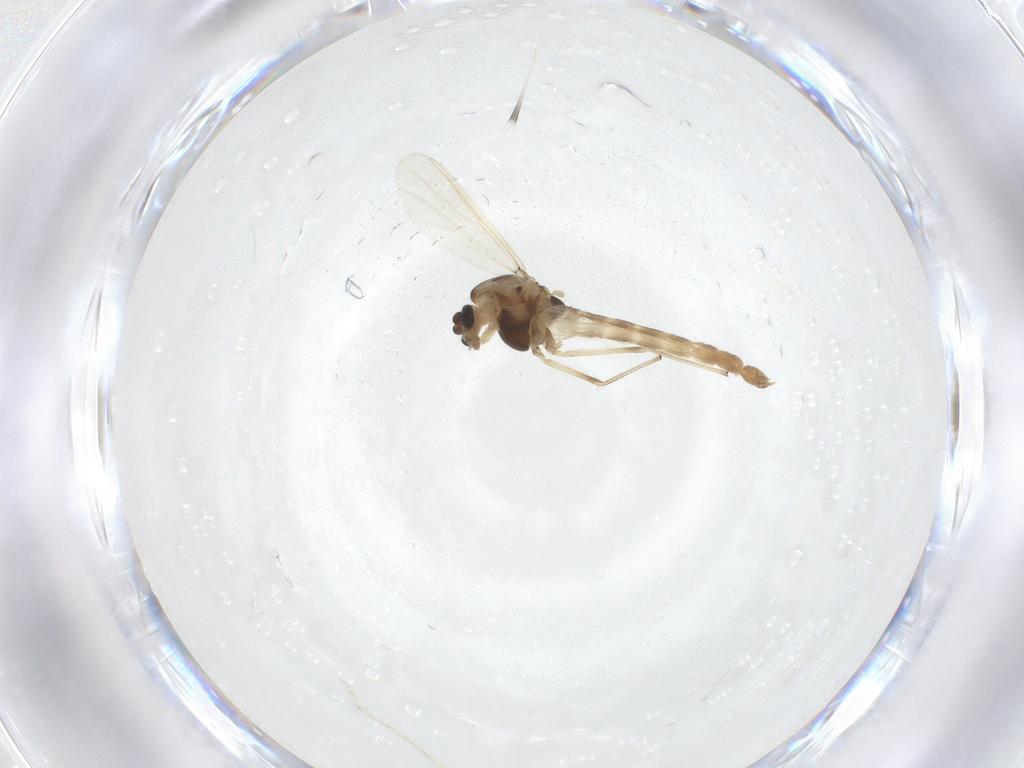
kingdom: Animalia
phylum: Arthropoda
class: Insecta
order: Diptera
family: Chironomidae
